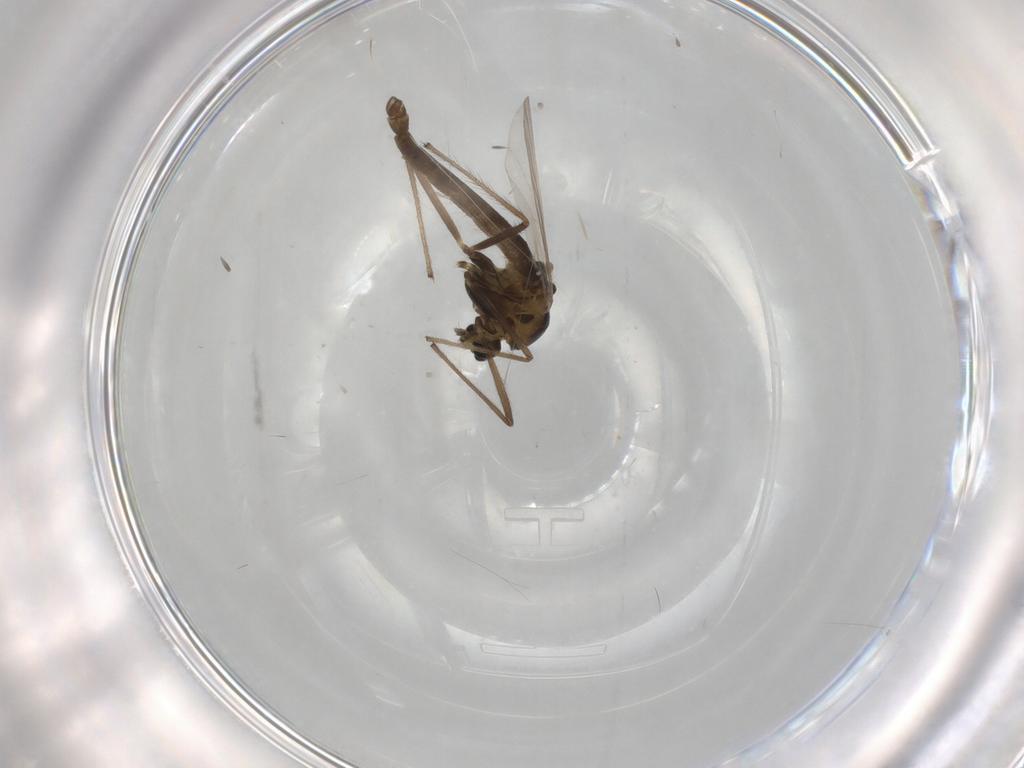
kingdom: Animalia
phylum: Arthropoda
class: Insecta
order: Diptera
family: Chironomidae
